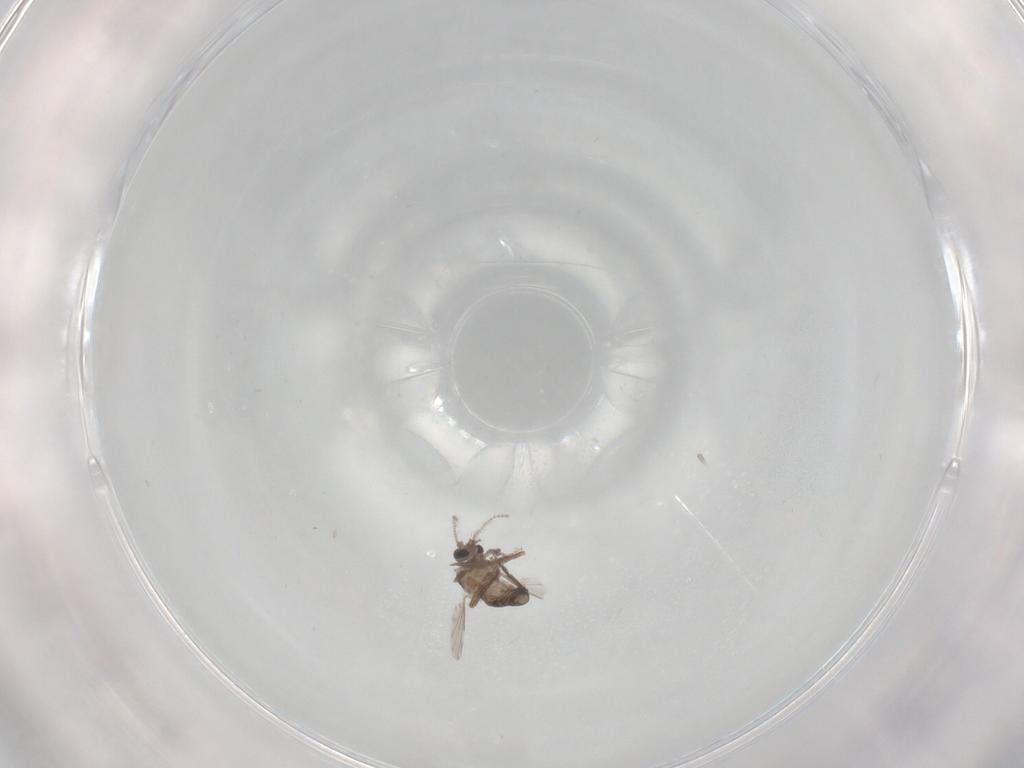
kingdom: Animalia
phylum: Arthropoda
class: Insecta
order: Diptera
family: Ceratopogonidae
